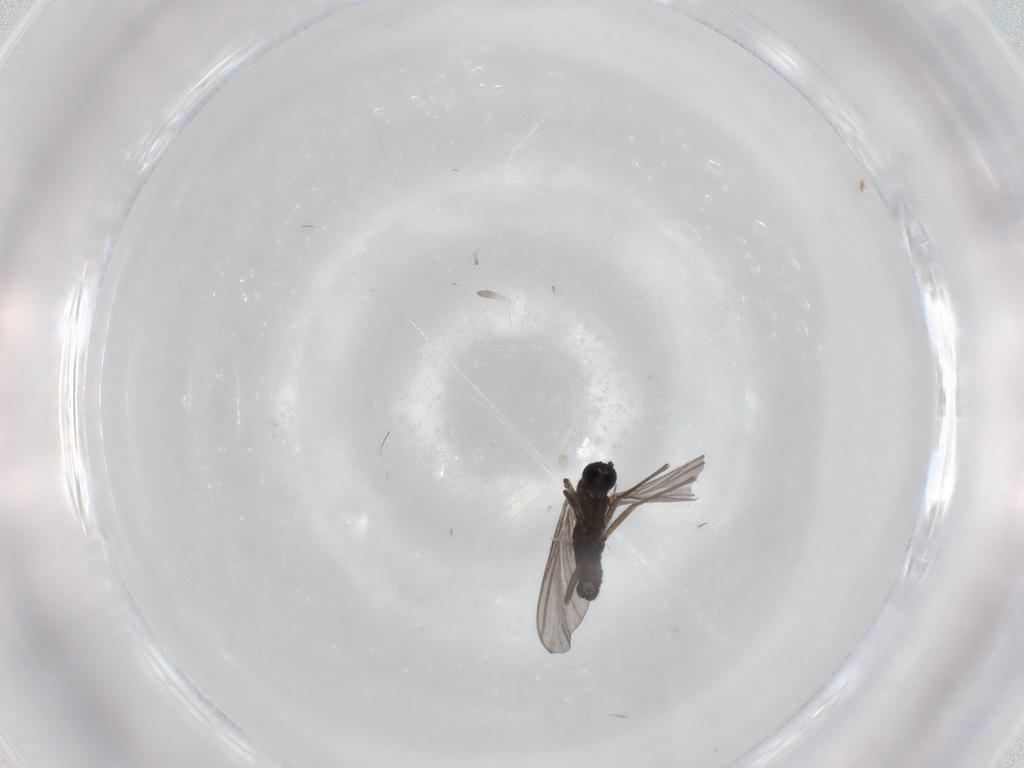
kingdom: Animalia
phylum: Arthropoda
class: Insecta
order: Diptera
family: Sciaridae
